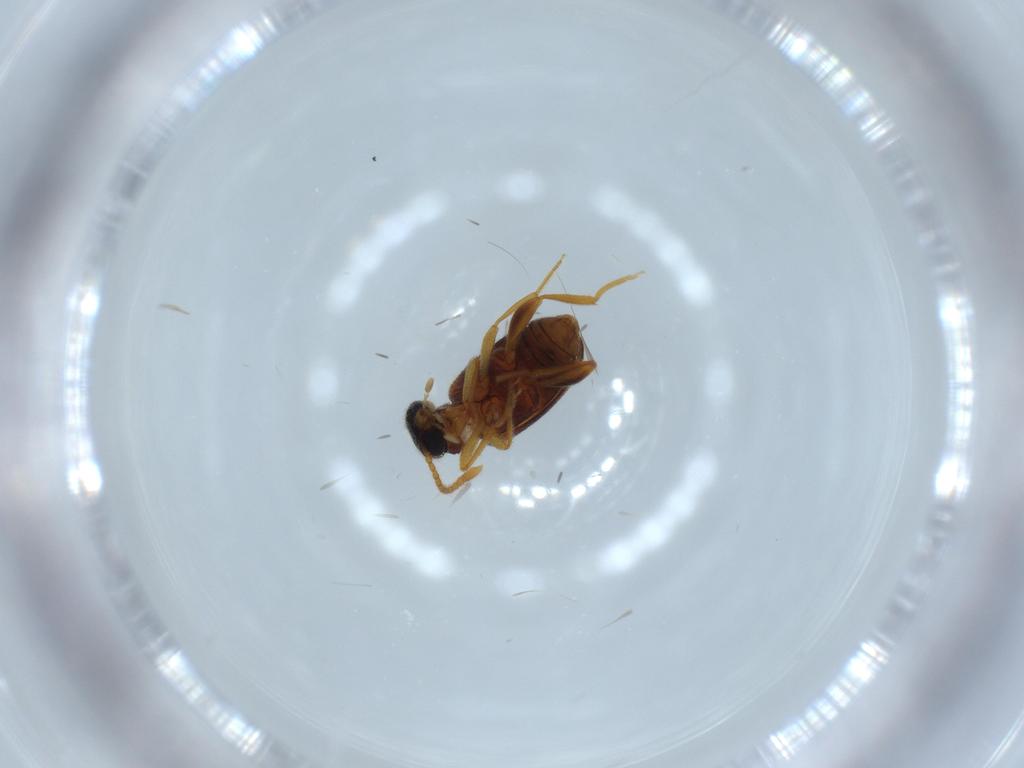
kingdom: Animalia
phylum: Arthropoda
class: Insecta
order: Coleoptera
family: Aderidae
